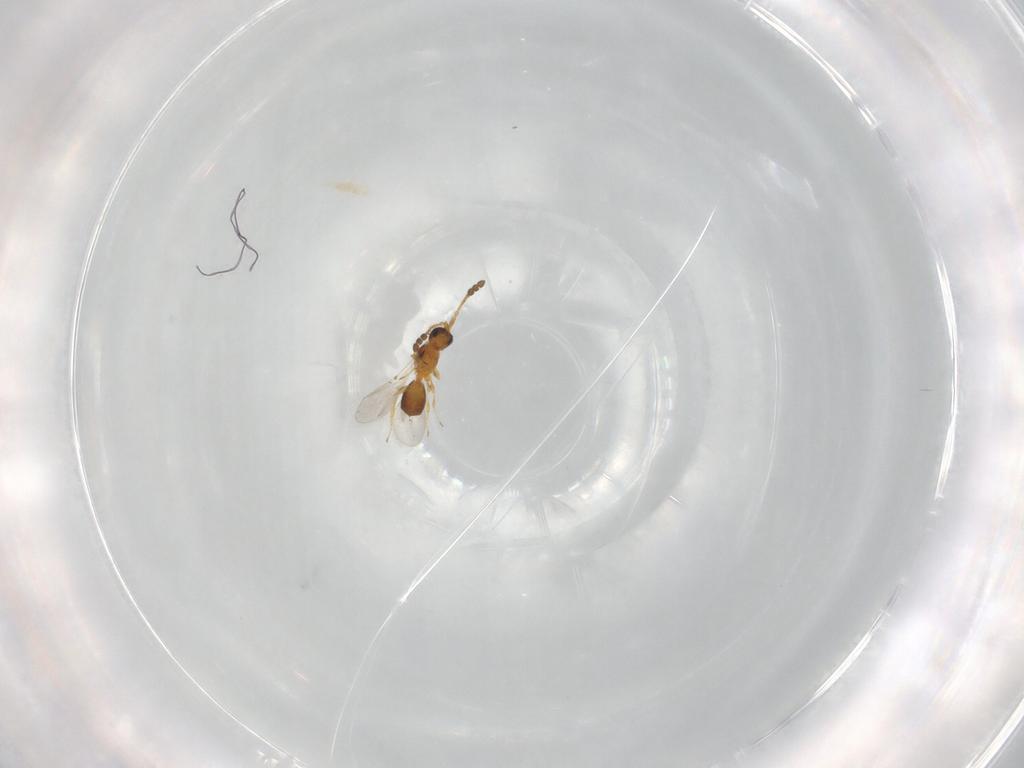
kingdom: Animalia
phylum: Arthropoda
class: Insecta
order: Hymenoptera
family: Diapriidae
